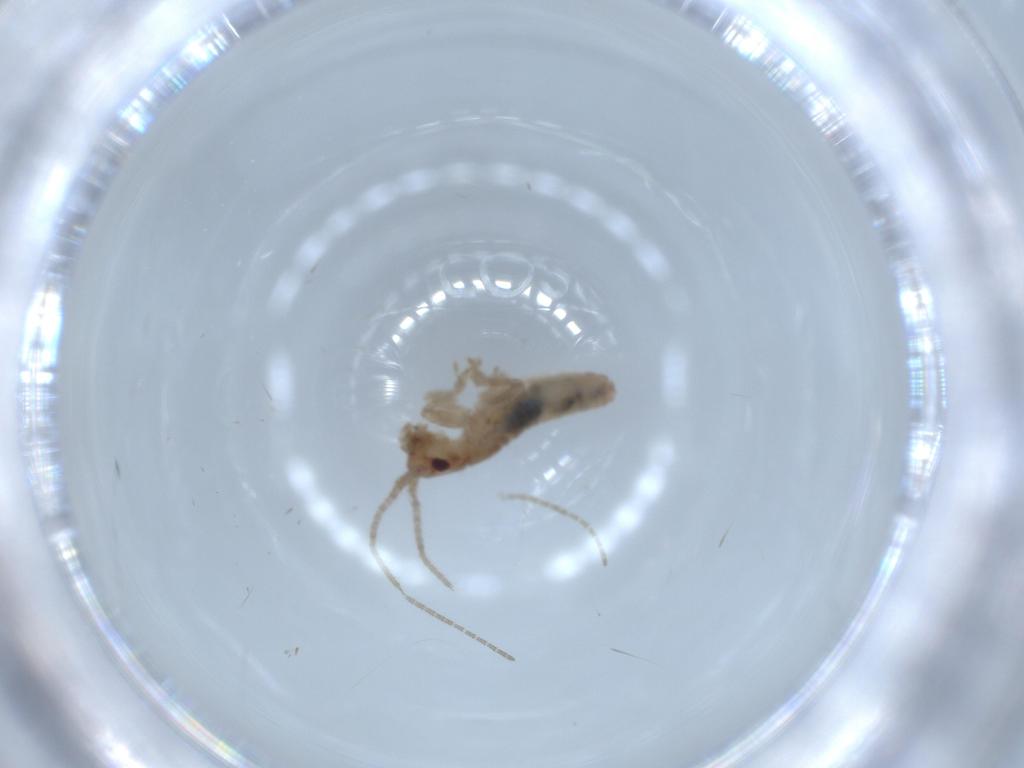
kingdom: Animalia
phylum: Arthropoda
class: Insecta
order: Orthoptera
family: Mogoplistidae
